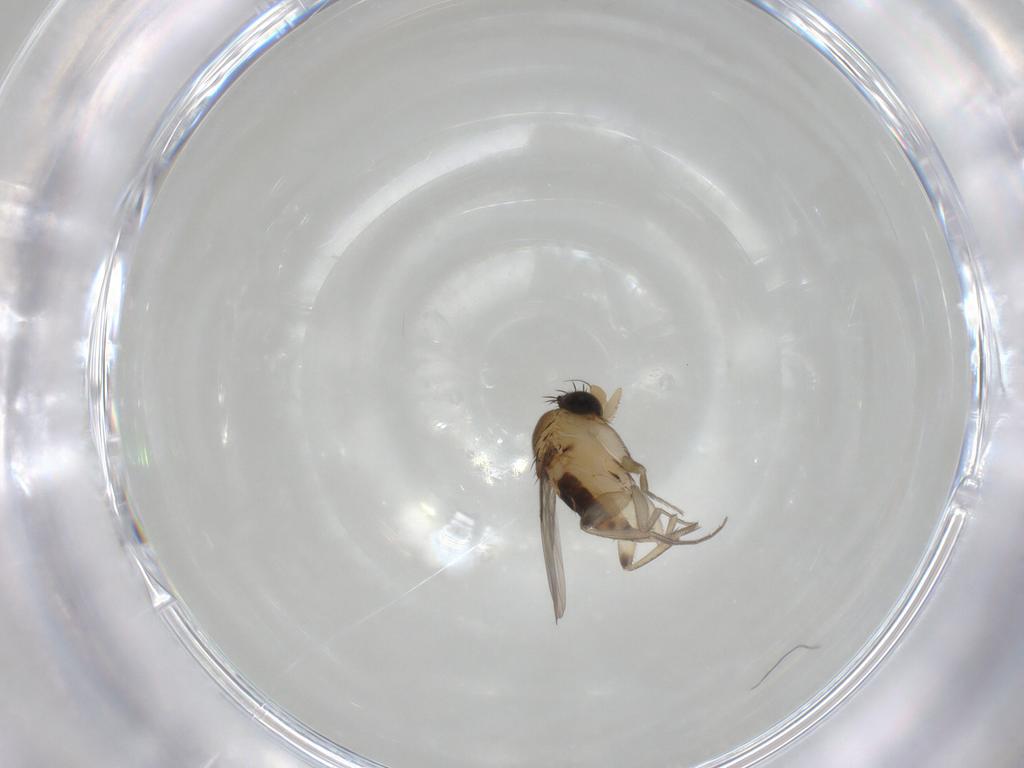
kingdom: Animalia
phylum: Arthropoda
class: Insecta
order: Diptera
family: Phoridae
